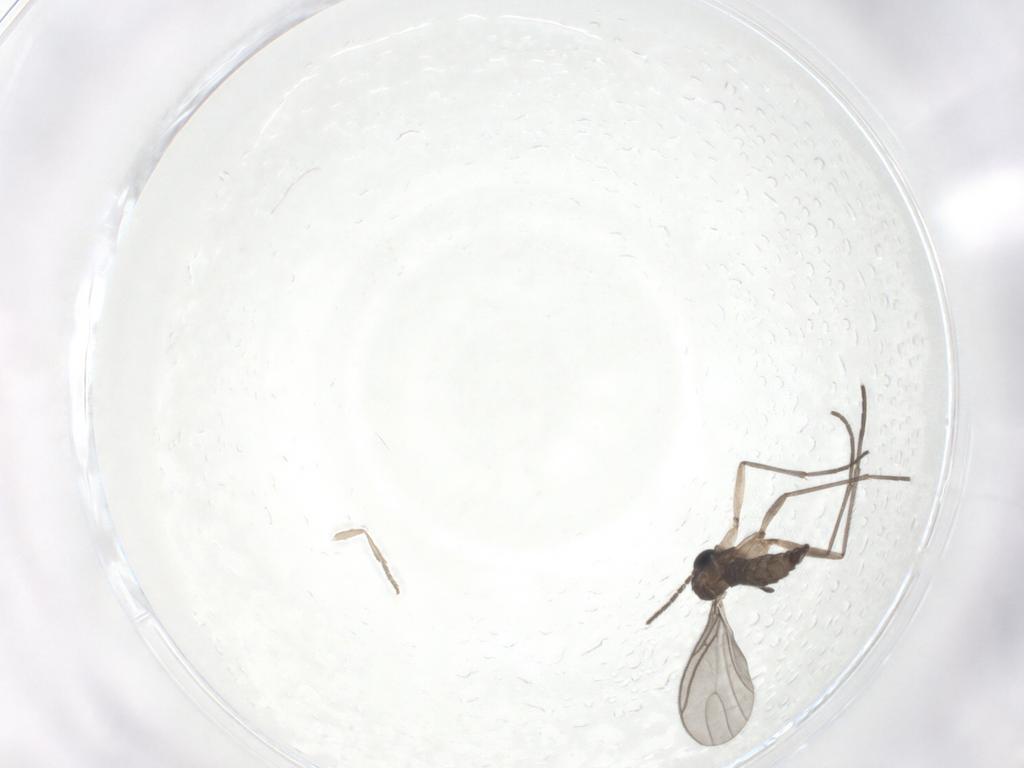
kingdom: Animalia
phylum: Arthropoda
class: Insecta
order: Diptera
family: Psychodidae
